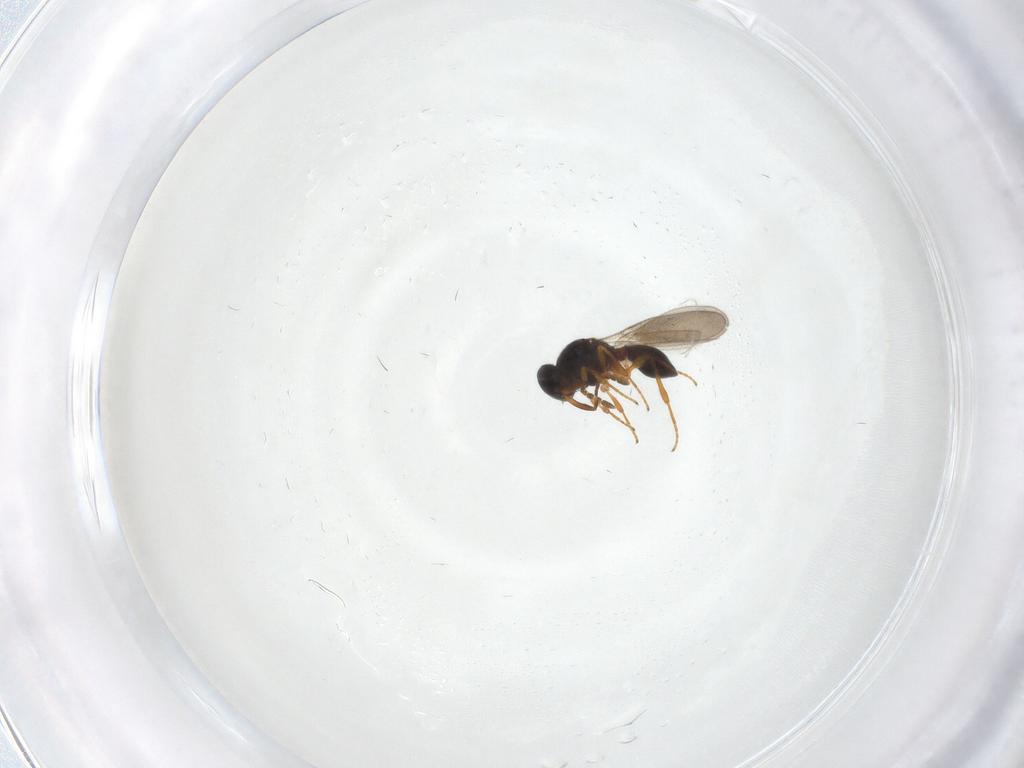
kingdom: Animalia
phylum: Arthropoda
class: Insecta
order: Hymenoptera
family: Platygastridae
